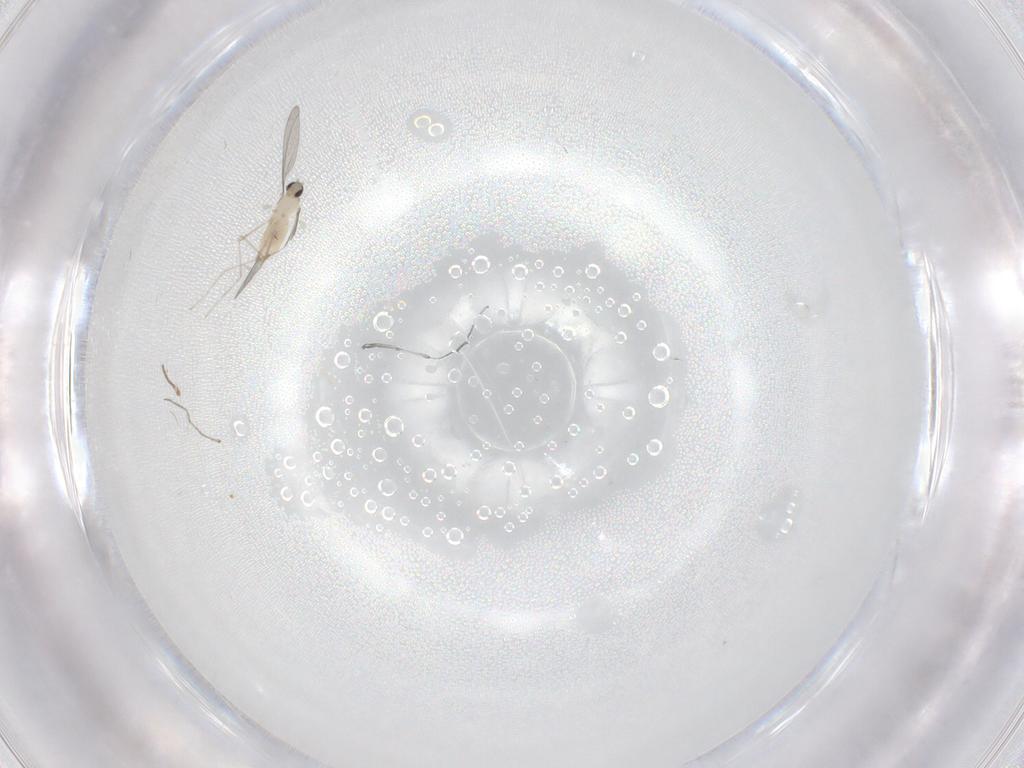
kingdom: Animalia
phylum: Arthropoda
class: Insecta
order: Diptera
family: Cecidomyiidae
